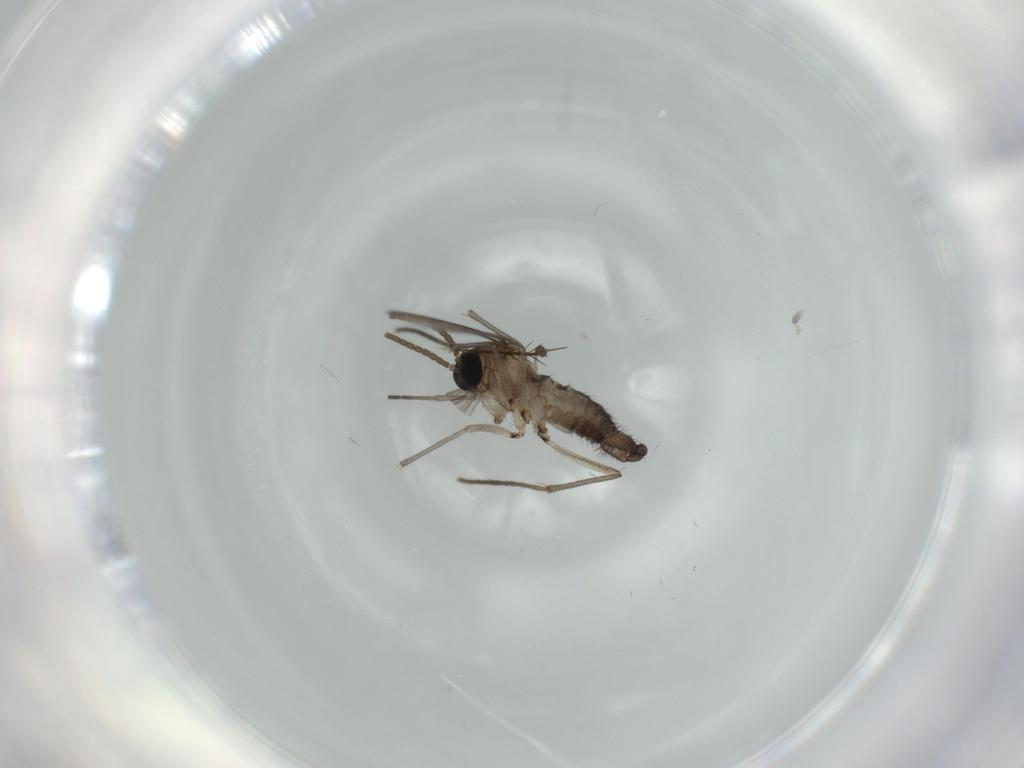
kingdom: Animalia
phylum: Arthropoda
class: Insecta
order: Diptera
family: Sciaridae
